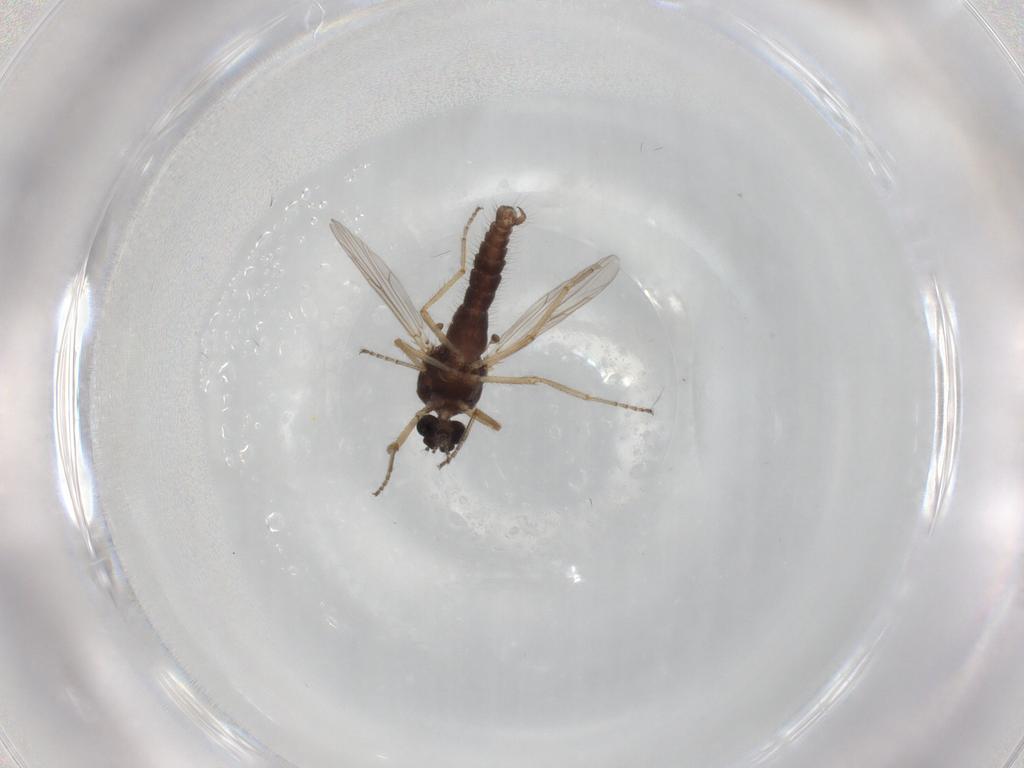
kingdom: Animalia
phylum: Arthropoda
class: Insecta
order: Diptera
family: Ceratopogonidae
